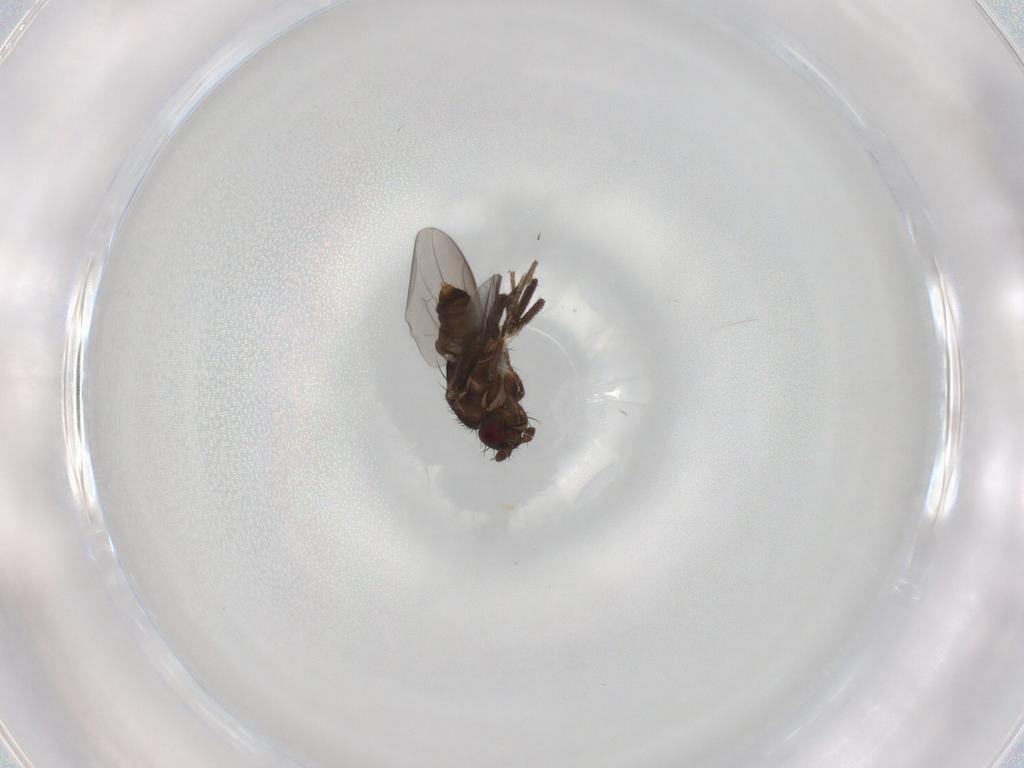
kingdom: Animalia
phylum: Arthropoda
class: Insecta
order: Diptera
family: Sphaeroceridae
